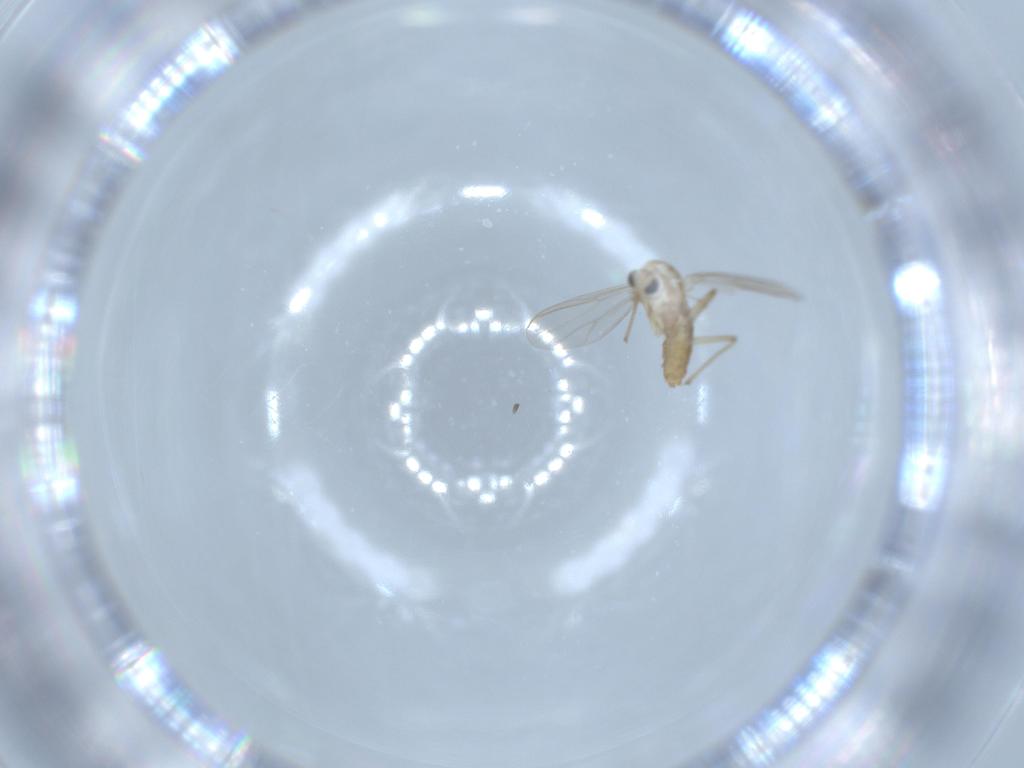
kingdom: Animalia
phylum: Arthropoda
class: Insecta
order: Diptera
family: Chironomidae
